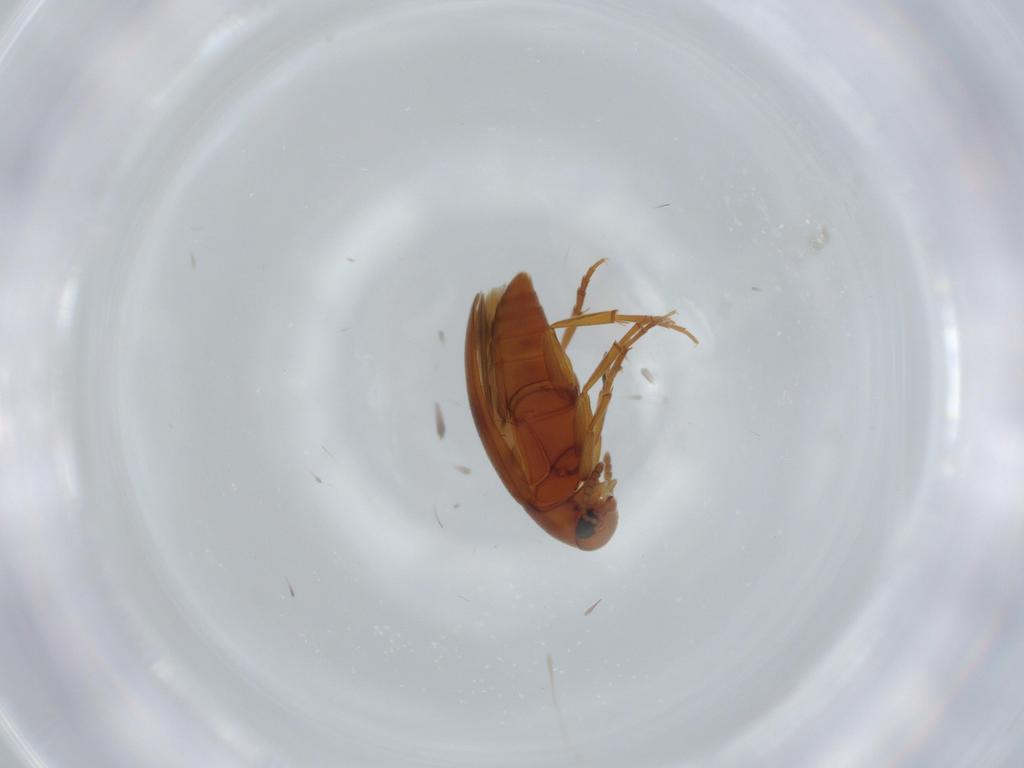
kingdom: Animalia
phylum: Arthropoda
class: Insecta
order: Coleoptera
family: Scraptiidae
